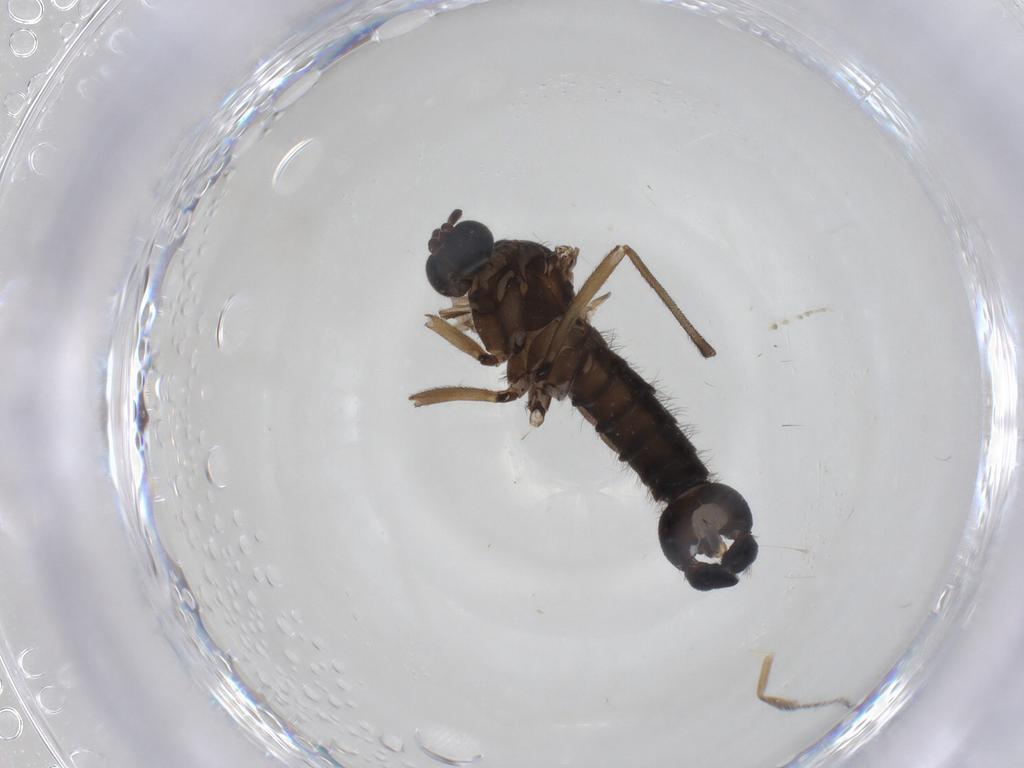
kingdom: Animalia
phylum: Arthropoda
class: Insecta
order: Diptera
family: Sciaridae
